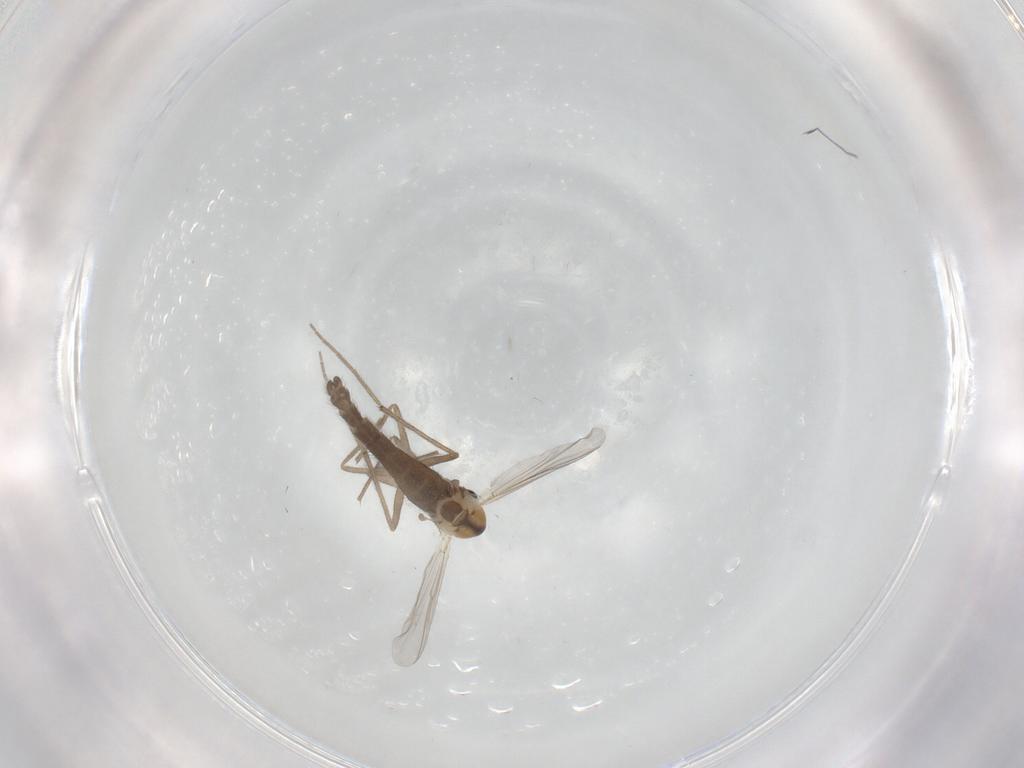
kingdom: Animalia
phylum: Arthropoda
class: Insecta
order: Diptera
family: Chironomidae
